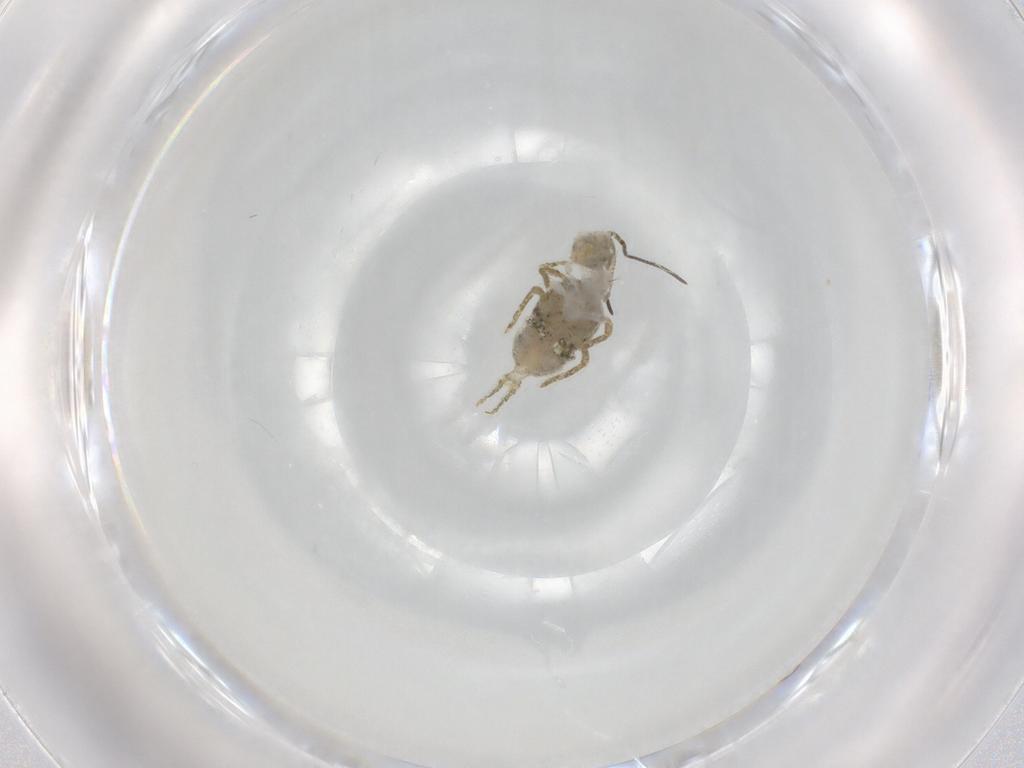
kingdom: Animalia
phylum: Arthropoda
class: Collembola
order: Symphypleona
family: Sminthuridae
